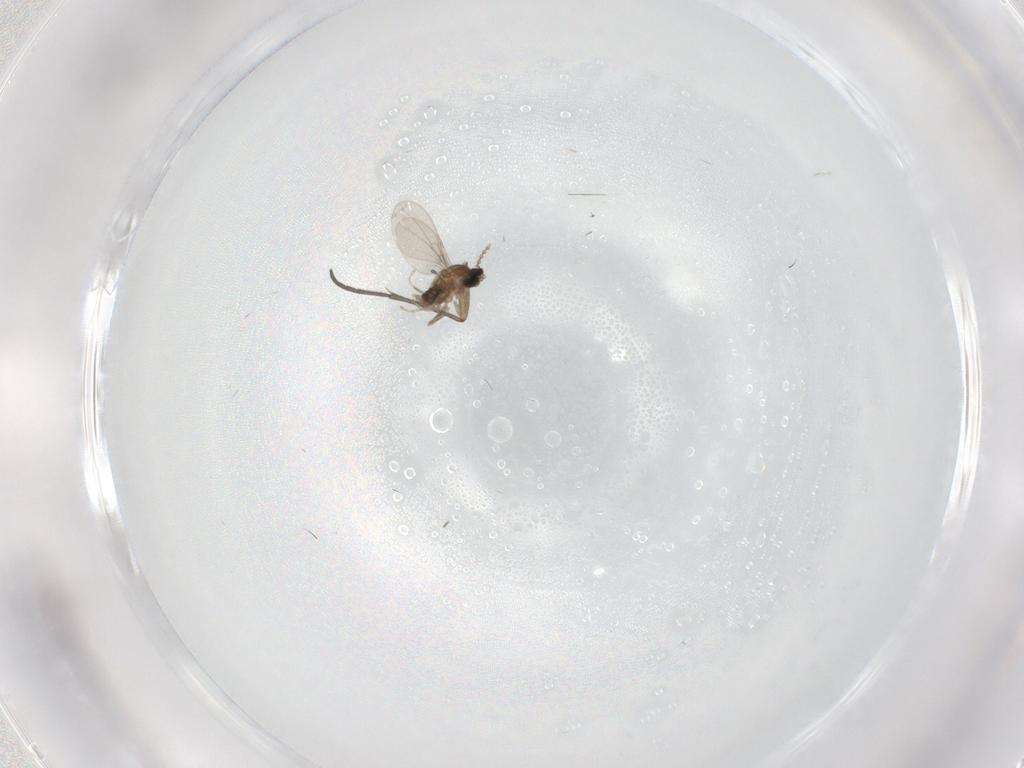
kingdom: Animalia
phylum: Arthropoda
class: Insecta
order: Diptera
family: Sciaridae
